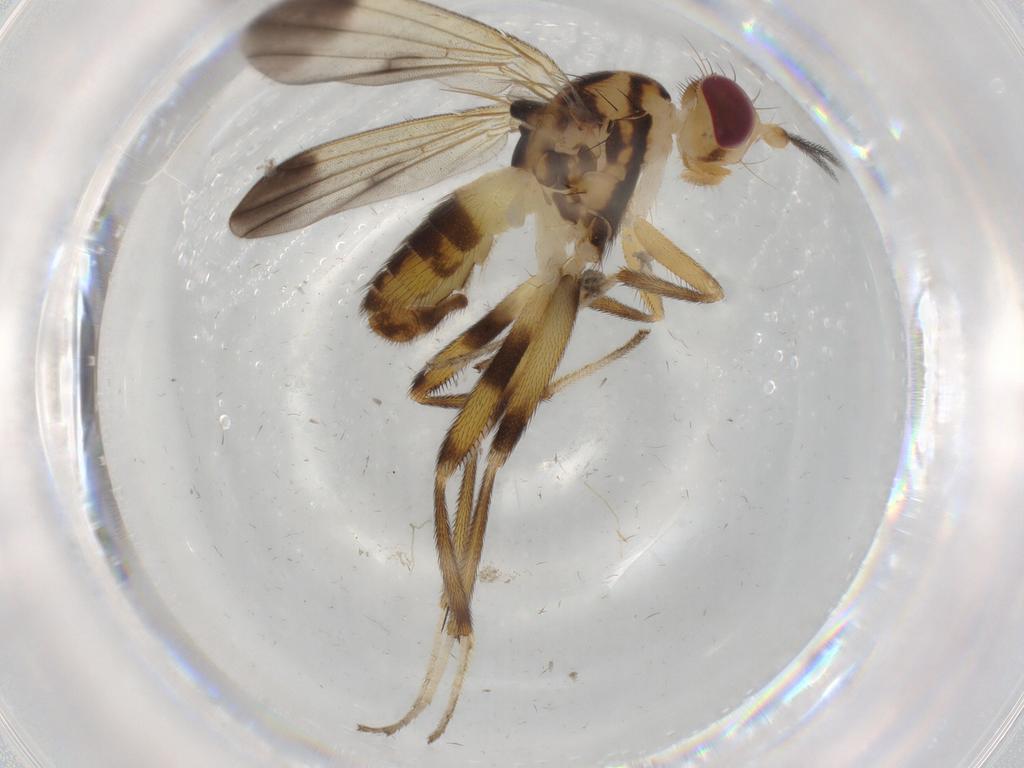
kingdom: Animalia
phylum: Arthropoda
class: Insecta
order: Diptera
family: Clusiidae
